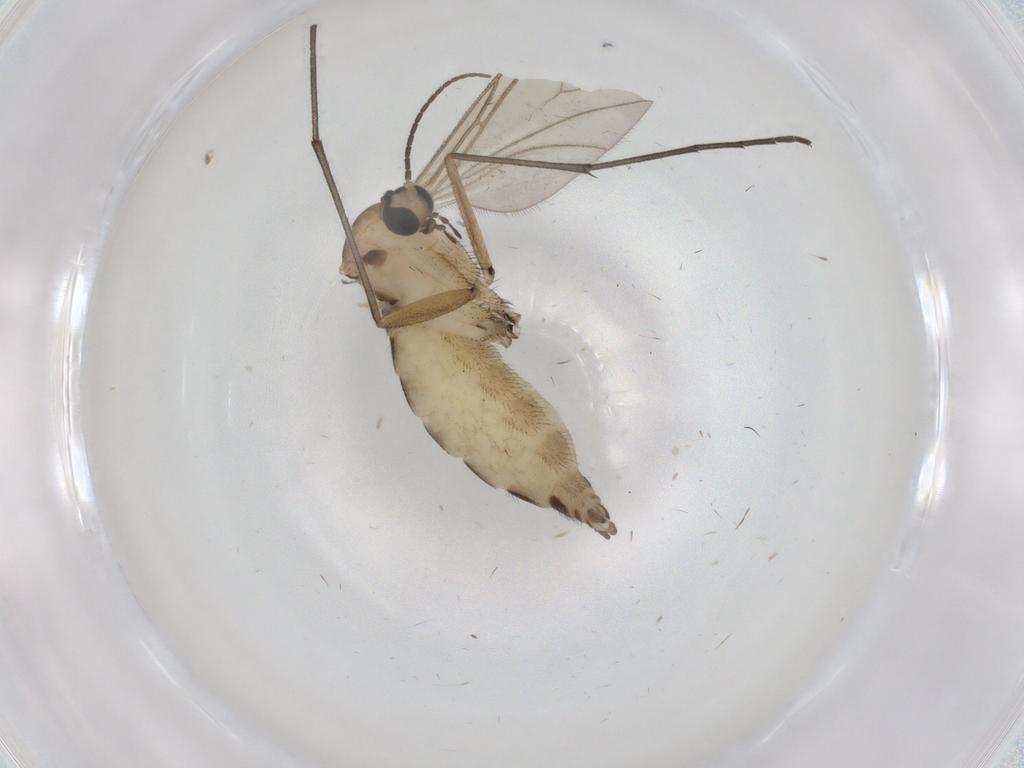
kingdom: Animalia
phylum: Arthropoda
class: Insecta
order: Diptera
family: Sciaridae
